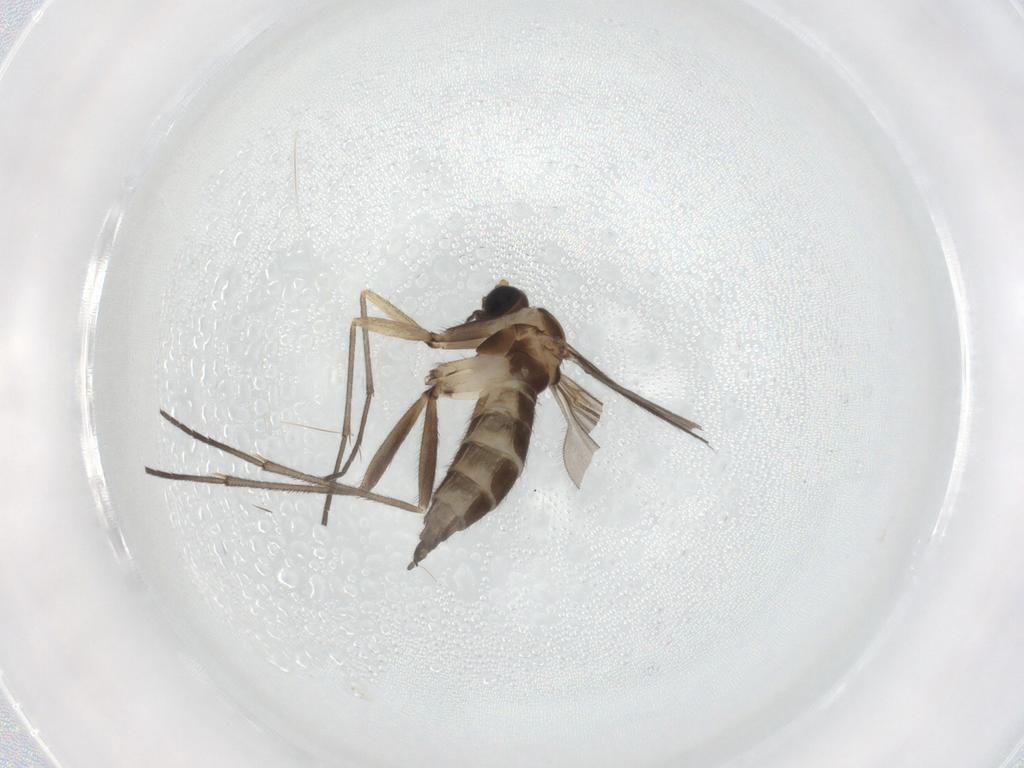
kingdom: Animalia
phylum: Arthropoda
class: Insecta
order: Diptera
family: Sciaridae
